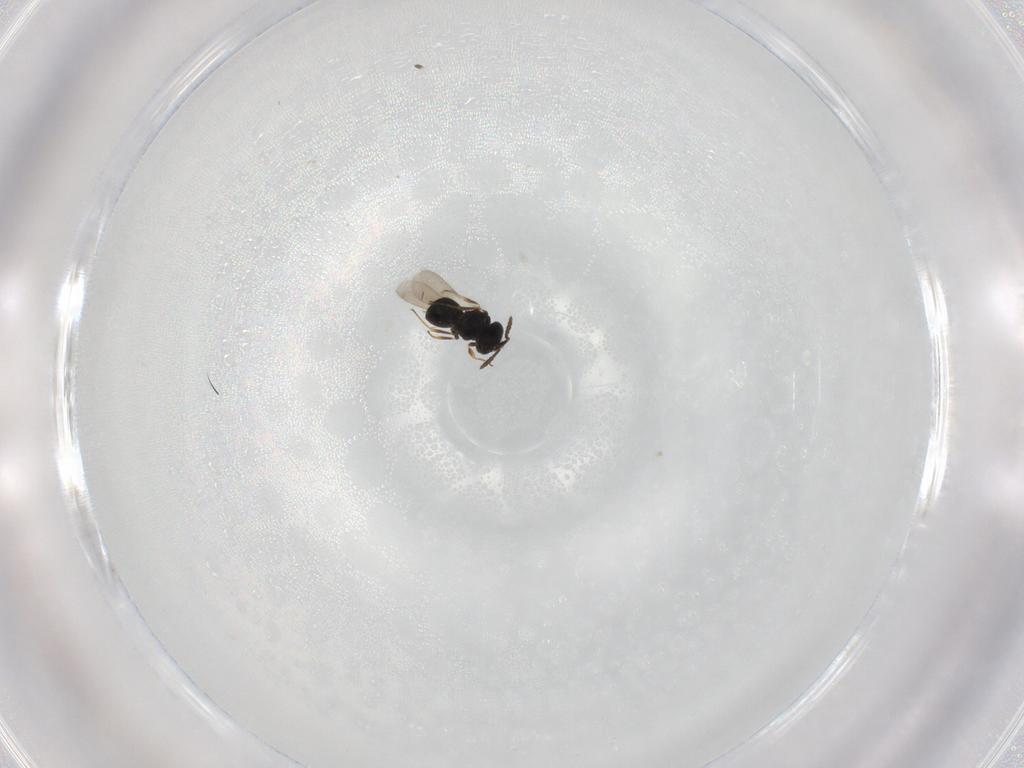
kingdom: Animalia
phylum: Arthropoda
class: Insecta
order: Hymenoptera
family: Scelionidae
